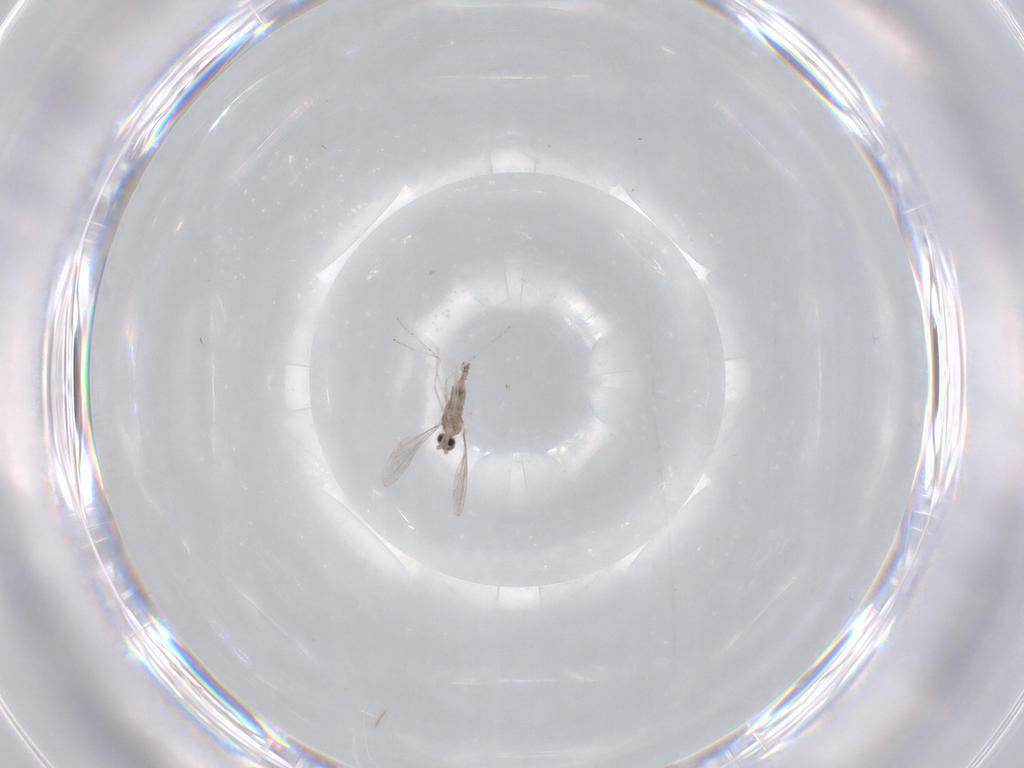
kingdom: Animalia
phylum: Arthropoda
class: Insecta
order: Diptera
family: Cecidomyiidae
